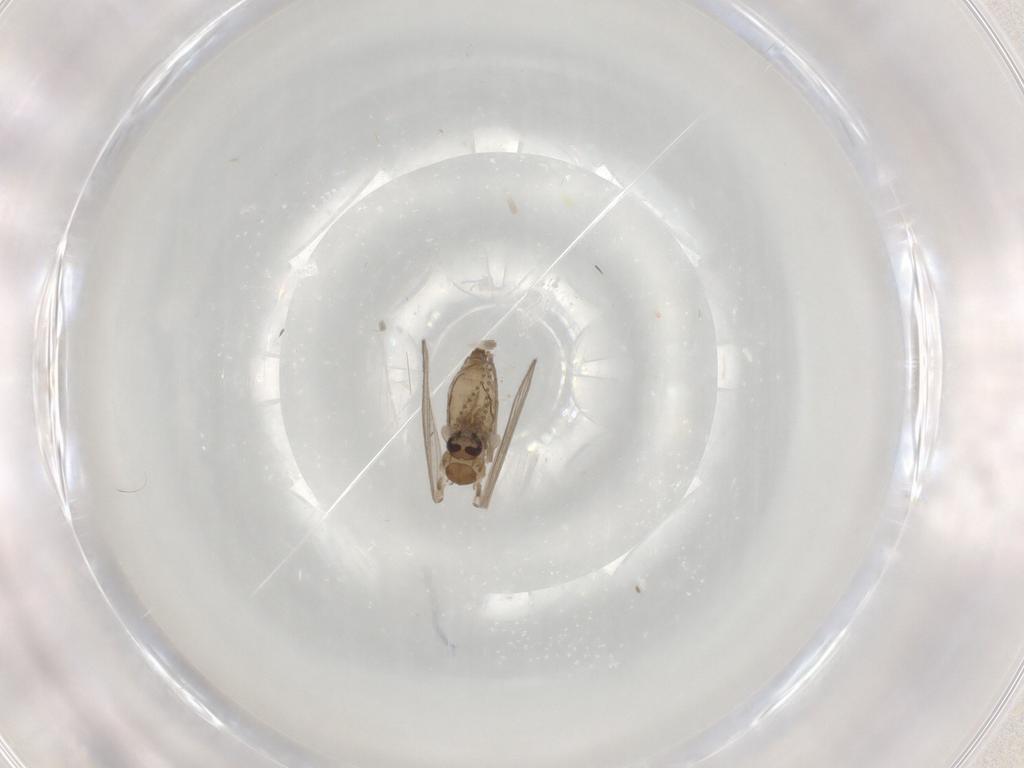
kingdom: Animalia
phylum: Arthropoda
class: Insecta
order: Diptera
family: Psychodidae
